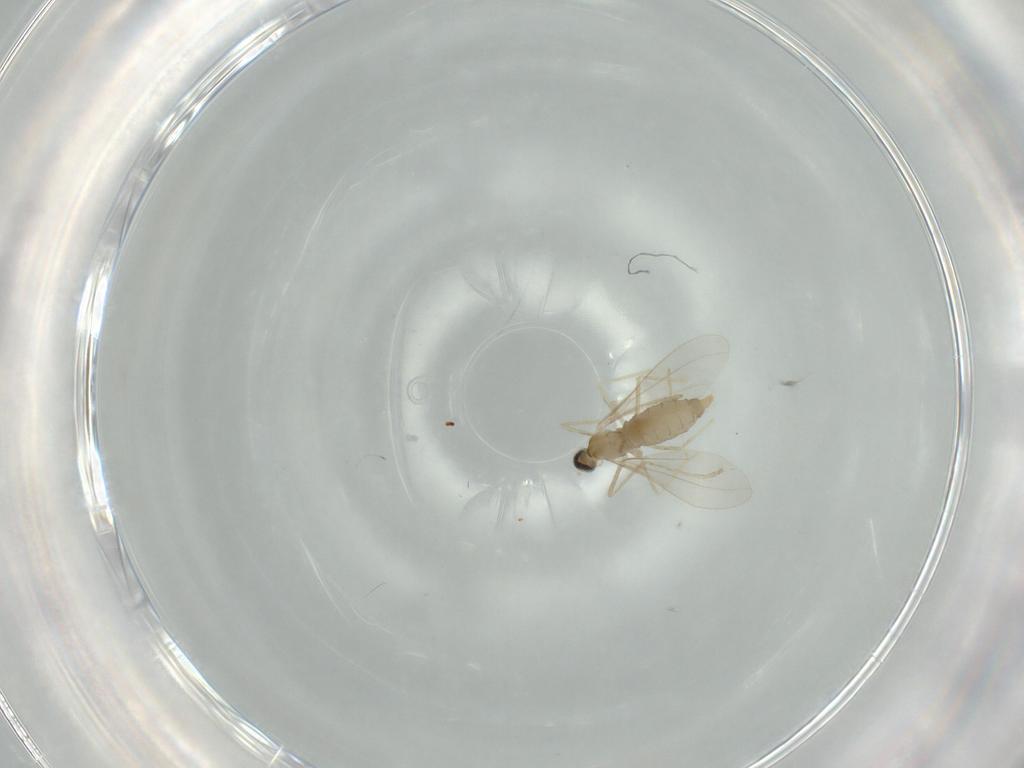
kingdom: Animalia
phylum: Arthropoda
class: Insecta
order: Diptera
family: Cecidomyiidae
